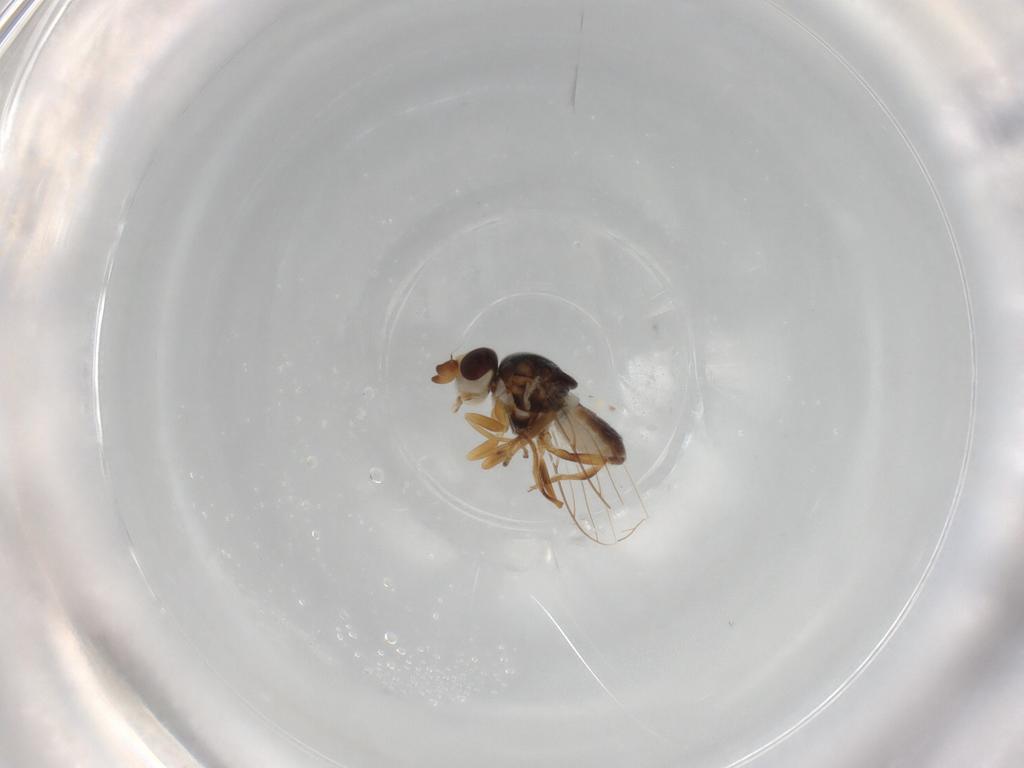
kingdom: Animalia
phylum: Arthropoda
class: Insecta
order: Diptera
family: Chloropidae
